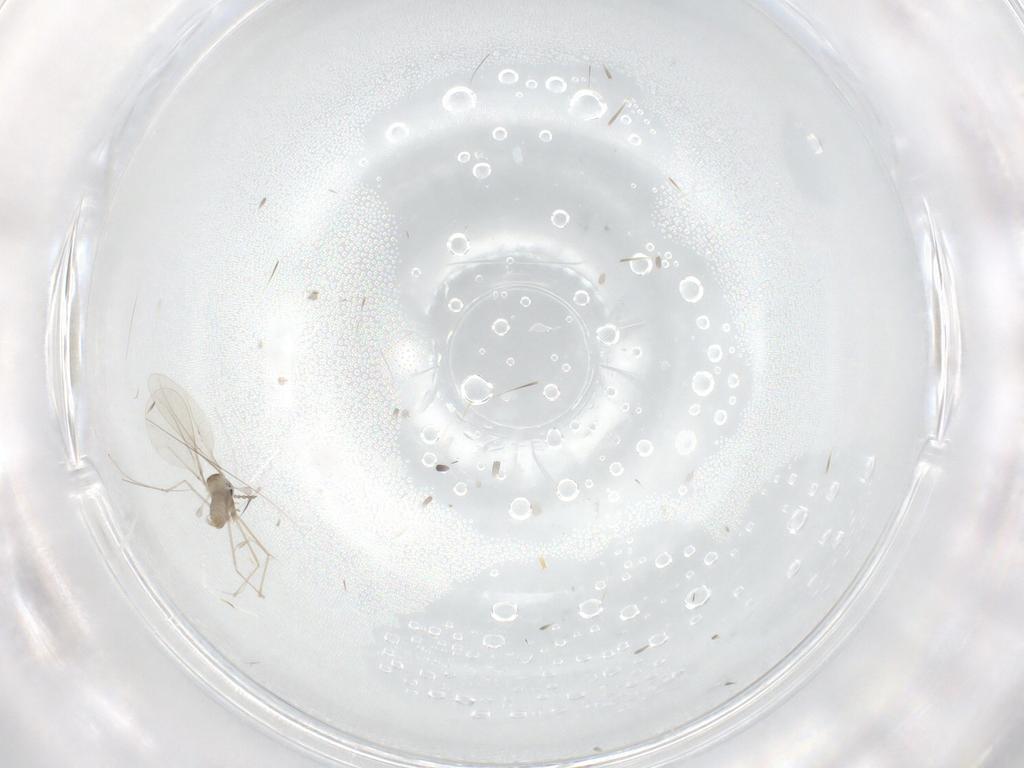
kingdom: Animalia
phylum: Arthropoda
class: Insecta
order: Diptera
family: Cecidomyiidae
